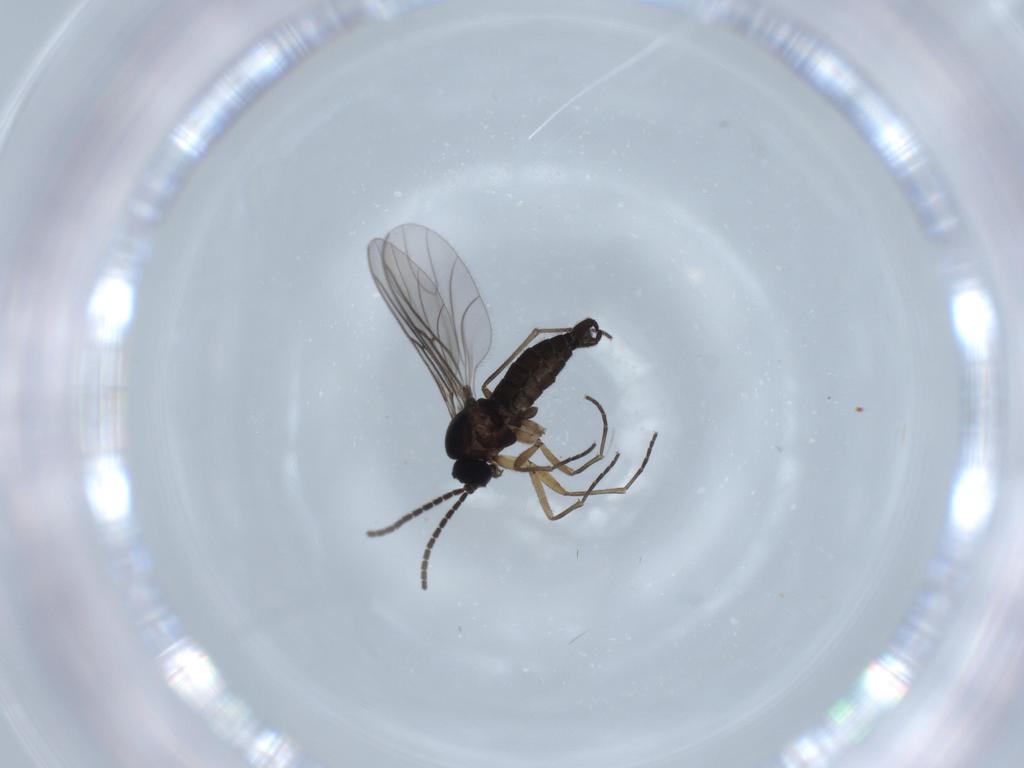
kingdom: Animalia
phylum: Arthropoda
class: Insecta
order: Diptera
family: Sciaridae
